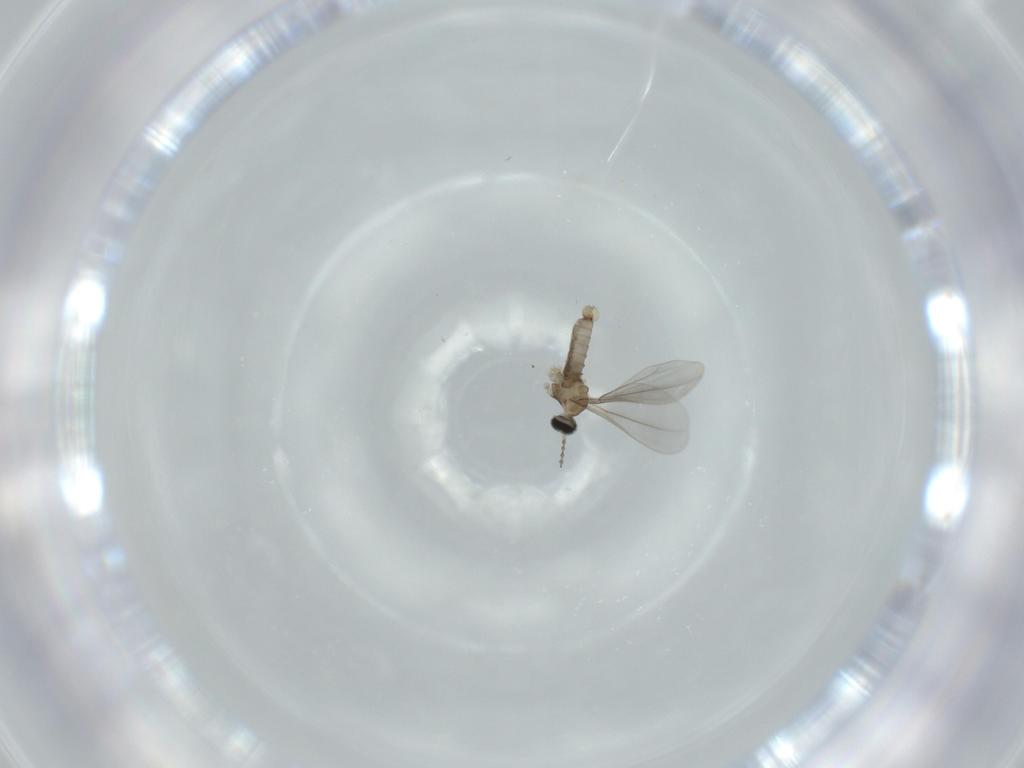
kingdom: Animalia
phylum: Arthropoda
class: Insecta
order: Diptera
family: Cecidomyiidae
